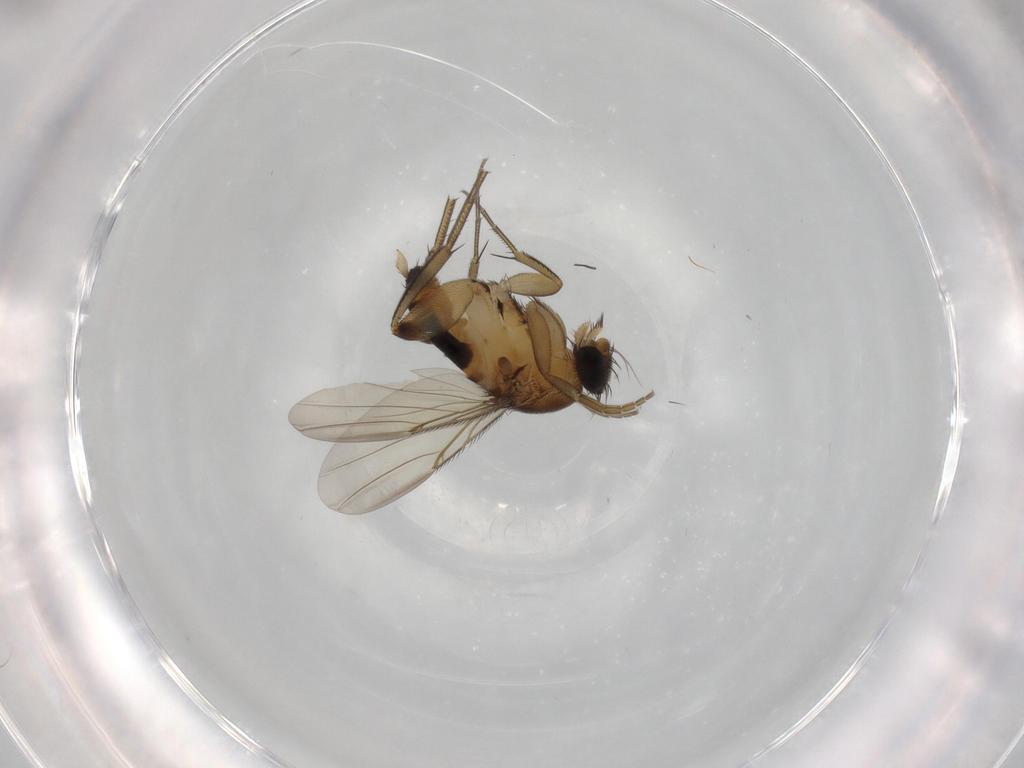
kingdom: Animalia
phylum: Arthropoda
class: Insecta
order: Diptera
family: Phoridae
